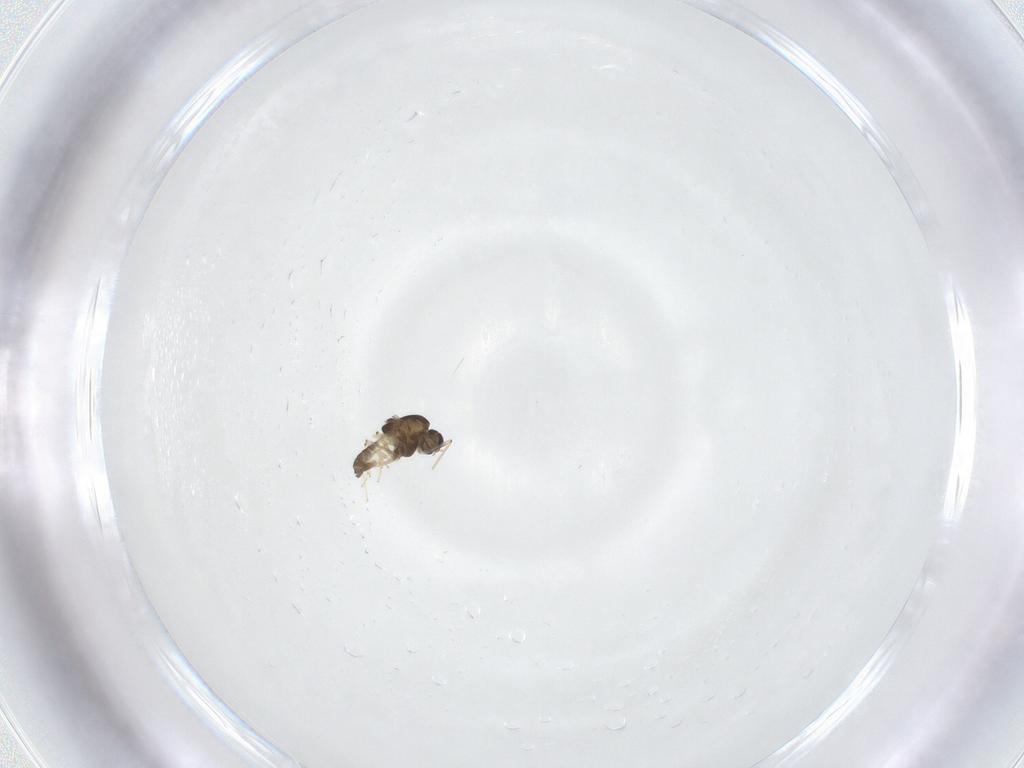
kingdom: Animalia
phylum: Arthropoda
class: Insecta
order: Diptera
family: Chironomidae
